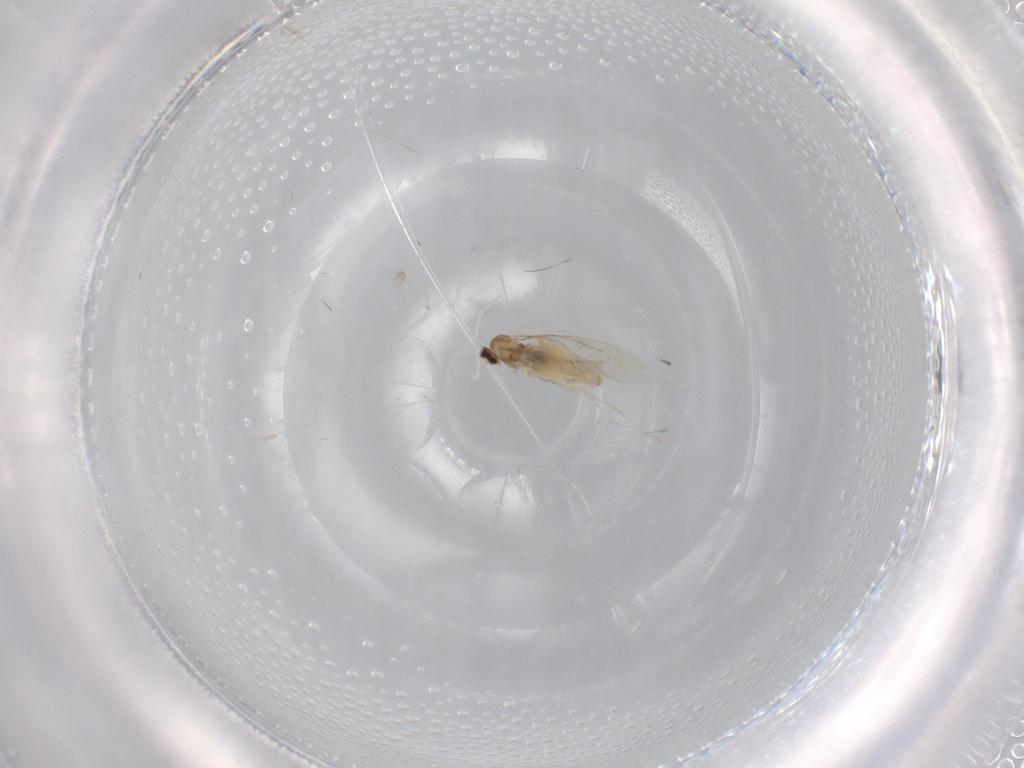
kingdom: Animalia
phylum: Arthropoda
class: Insecta
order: Diptera
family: Cecidomyiidae
